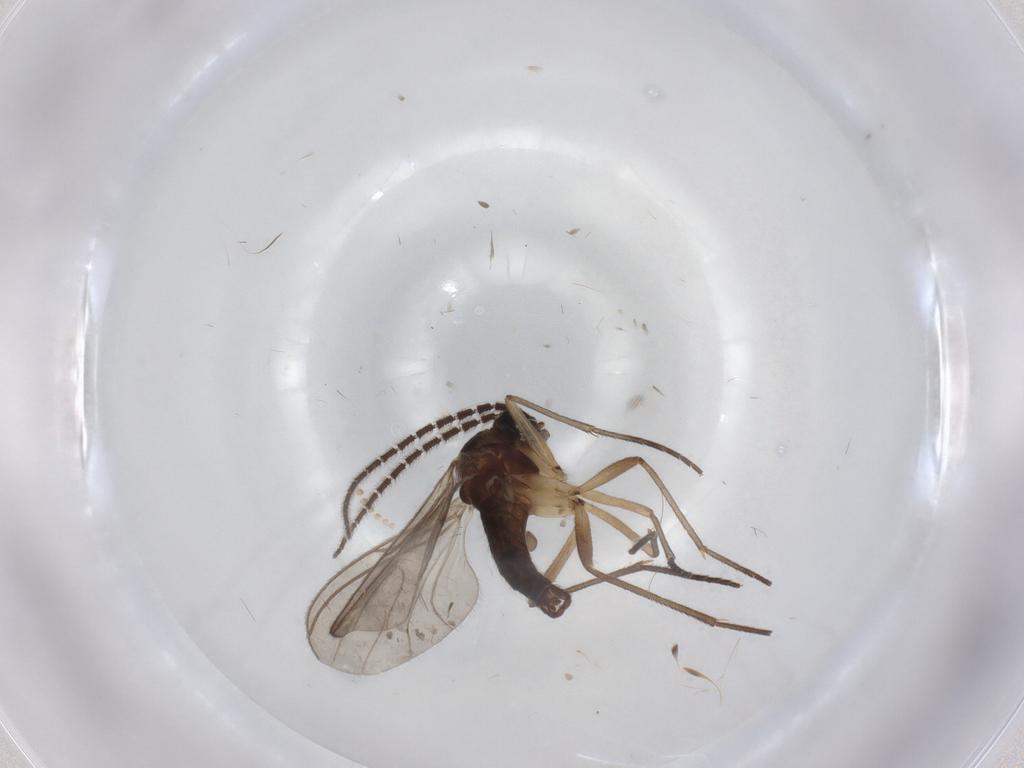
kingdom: Animalia
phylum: Arthropoda
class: Insecta
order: Diptera
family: Sciaridae
